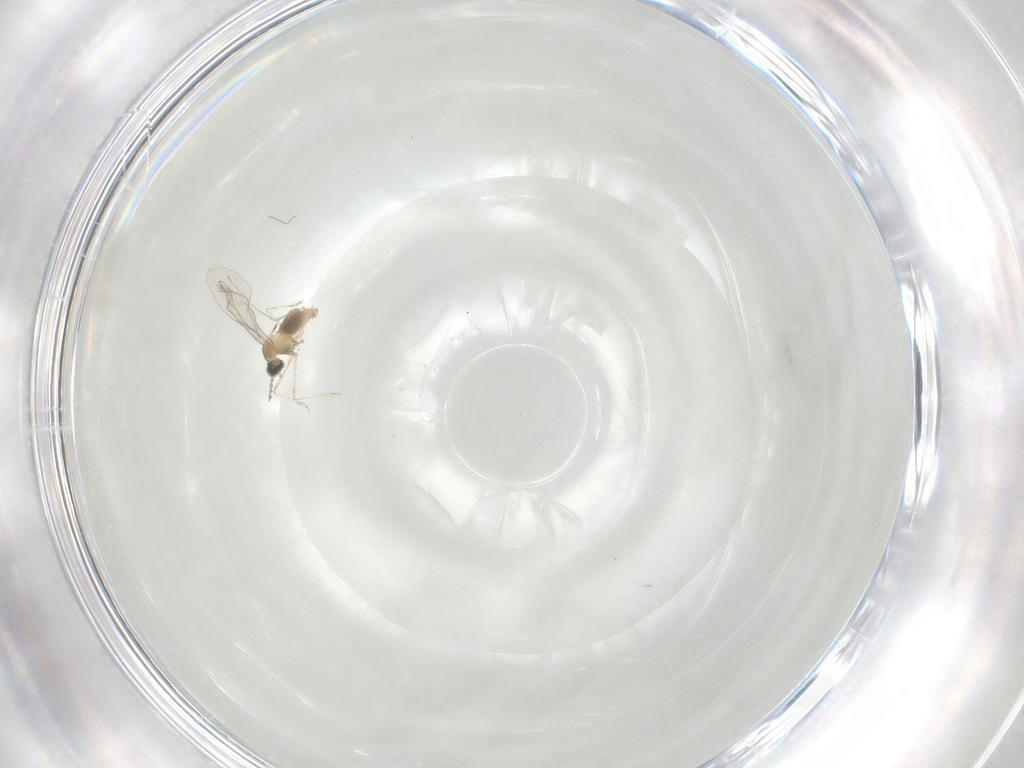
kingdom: Animalia
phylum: Arthropoda
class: Insecta
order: Diptera
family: Cecidomyiidae
